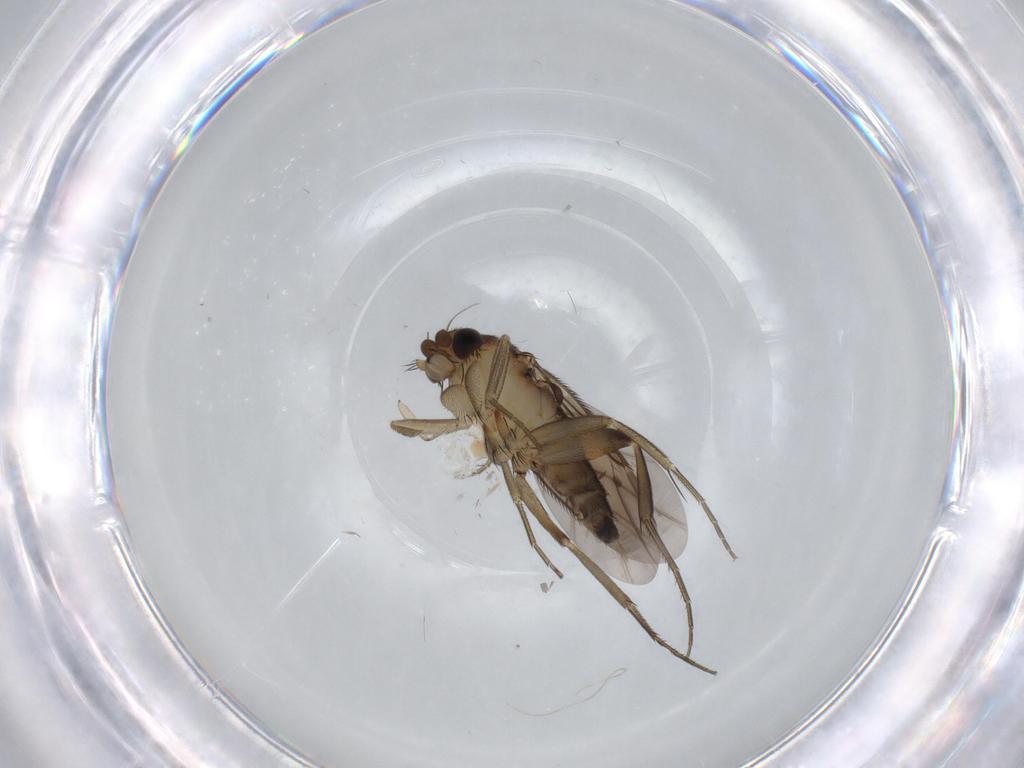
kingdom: Animalia
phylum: Arthropoda
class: Insecta
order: Diptera
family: Phoridae
